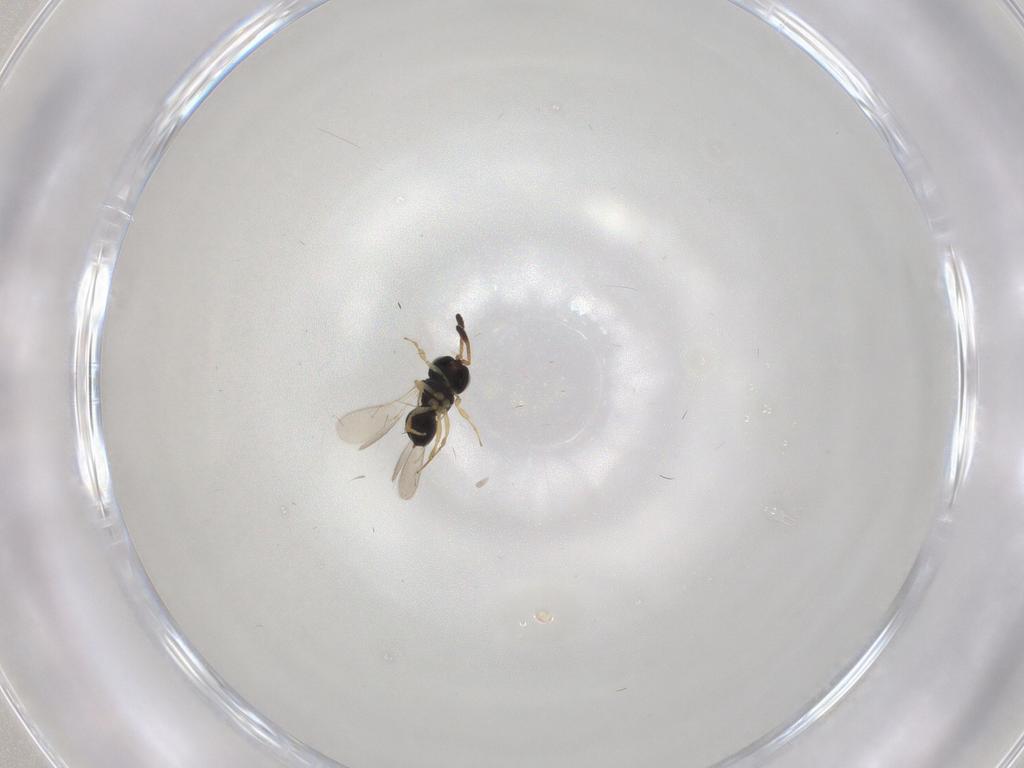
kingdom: Animalia
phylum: Arthropoda
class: Insecta
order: Hymenoptera
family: Scelionidae
